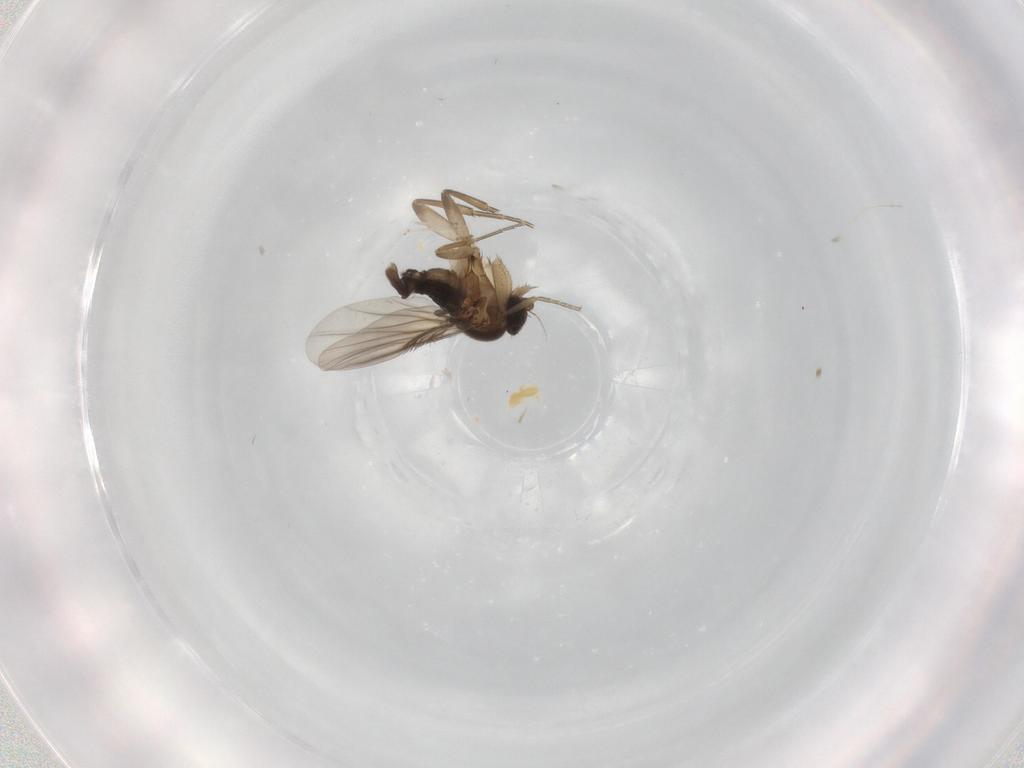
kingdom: Animalia
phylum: Arthropoda
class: Insecta
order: Diptera
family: Phoridae
